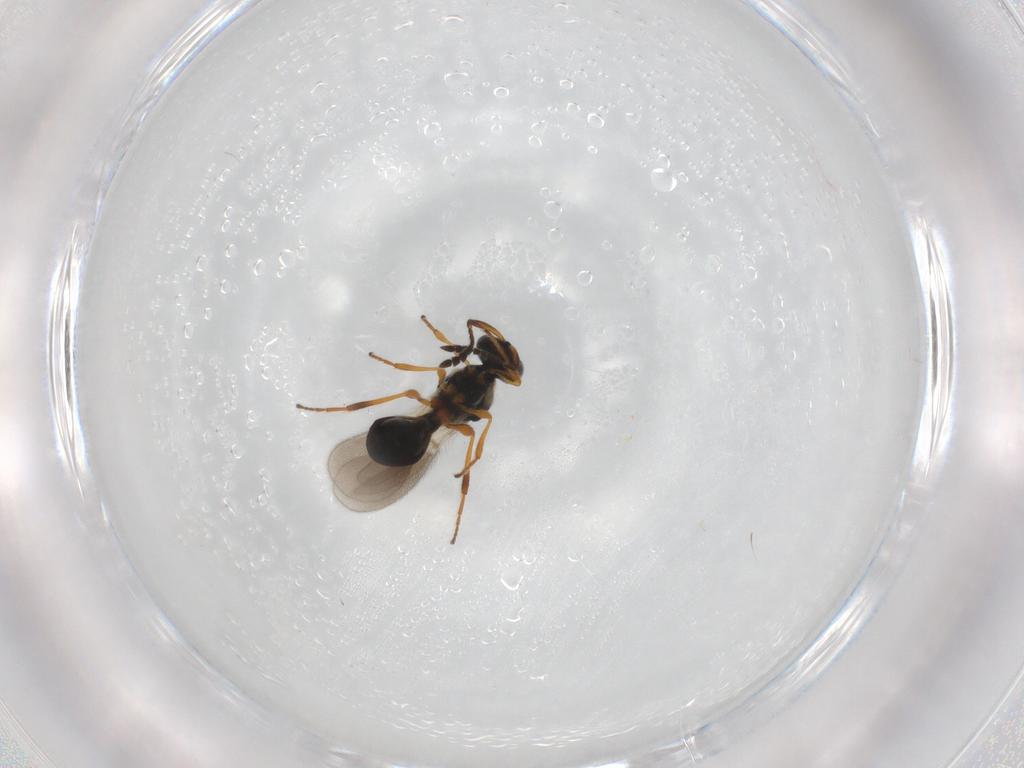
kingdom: Animalia
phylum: Arthropoda
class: Insecta
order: Hymenoptera
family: Platygastridae
